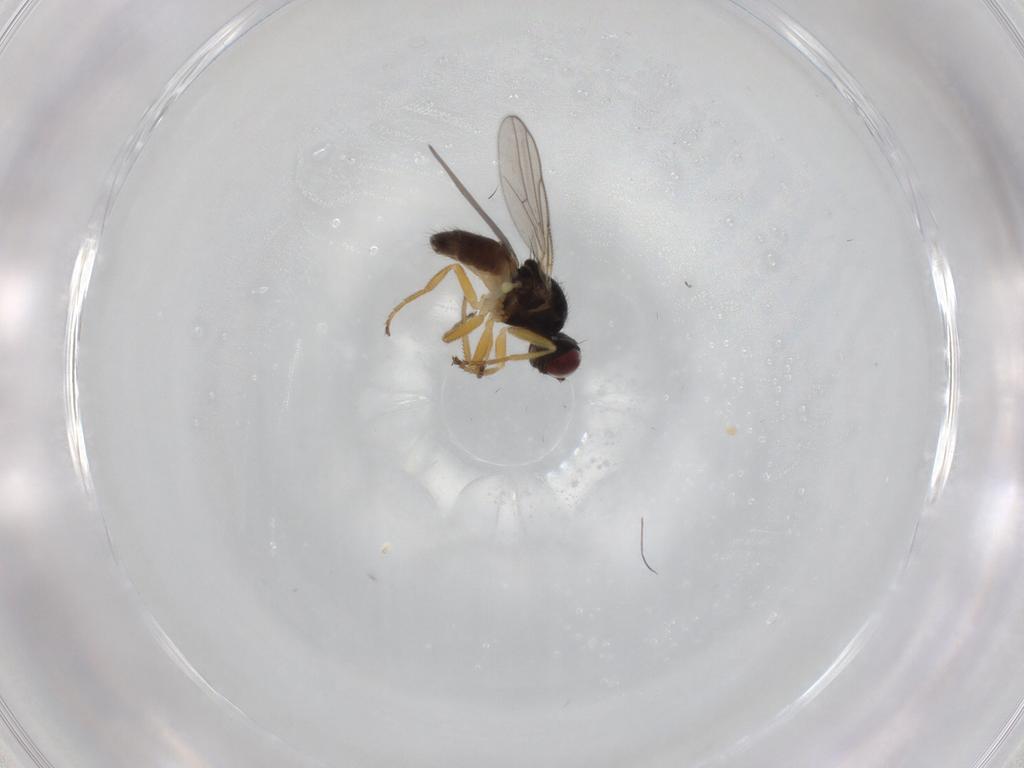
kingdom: Animalia
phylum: Arthropoda
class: Insecta
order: Diptera
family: Chloropidae
